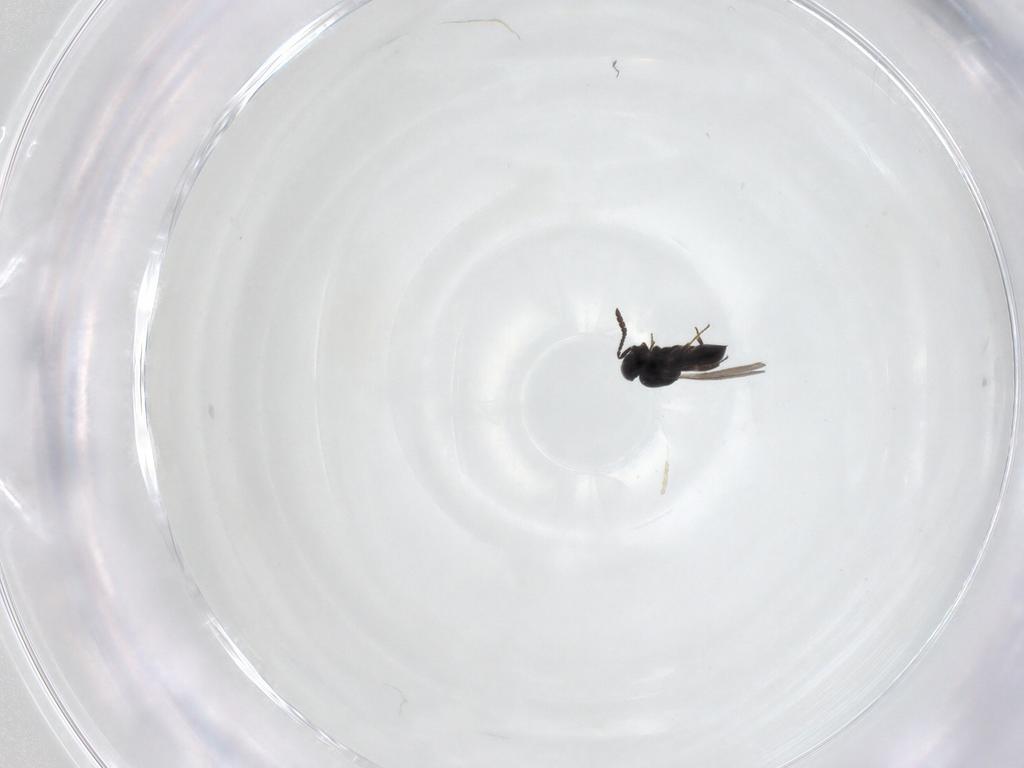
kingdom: Animalia
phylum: Arthropoda
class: Insecta
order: Hymenoptera
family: Scelionidae
